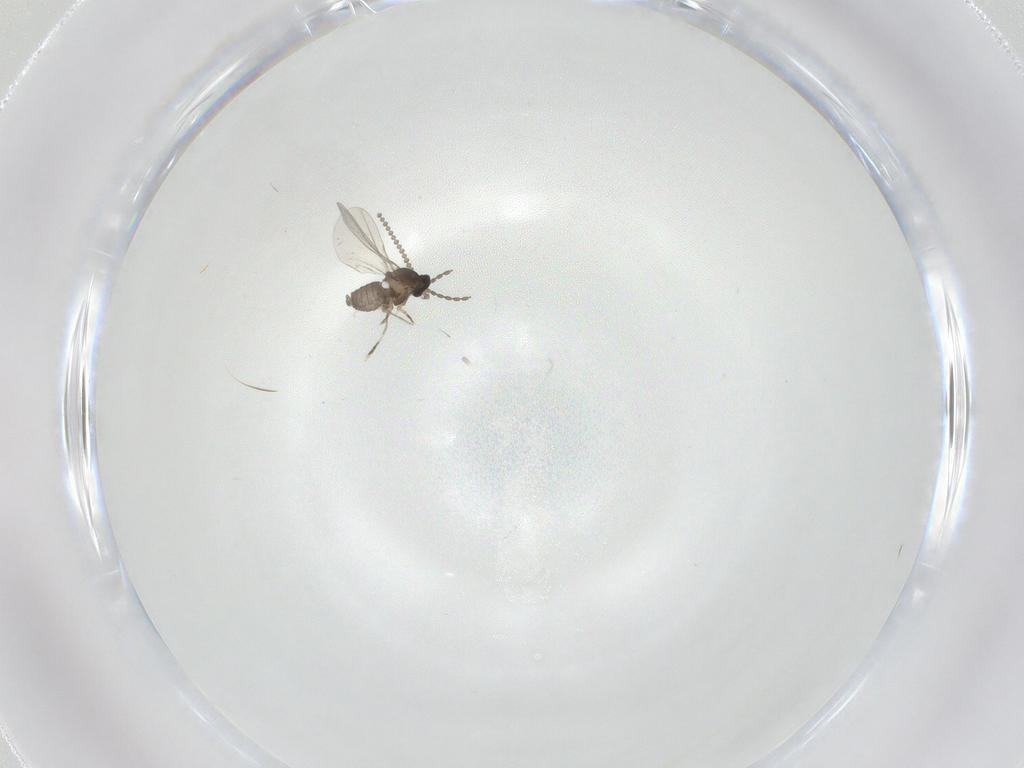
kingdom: Animalia
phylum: Arthropoda
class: Insecta
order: Diptera
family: Cecidomyiidae
